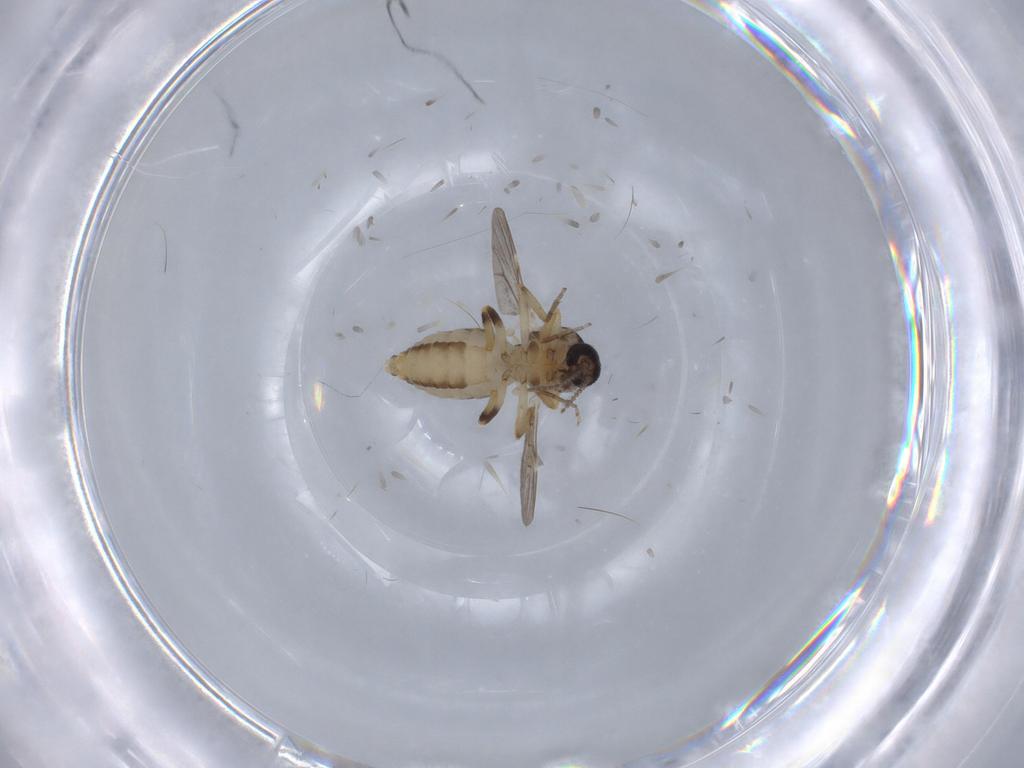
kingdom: Animalia
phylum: Arthropoda
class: Insecta
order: Diptera
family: Ceratopogonidae
